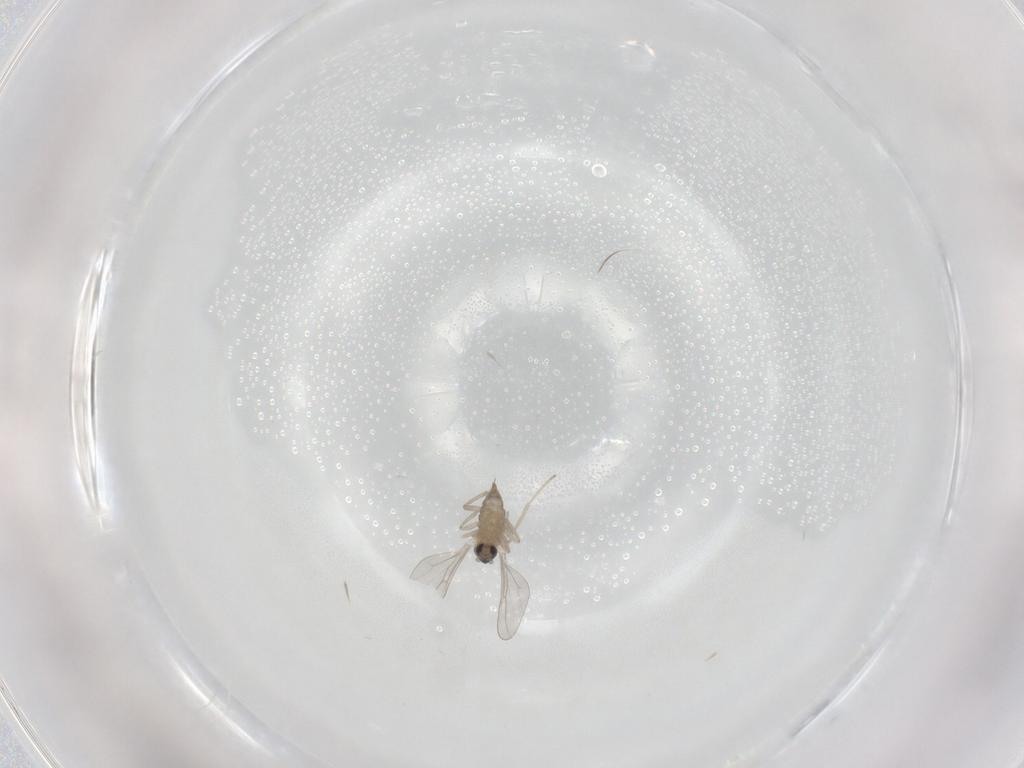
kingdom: Animalia
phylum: Arthropoda
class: Insecta
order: Diptera
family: Cecidomyiidae
